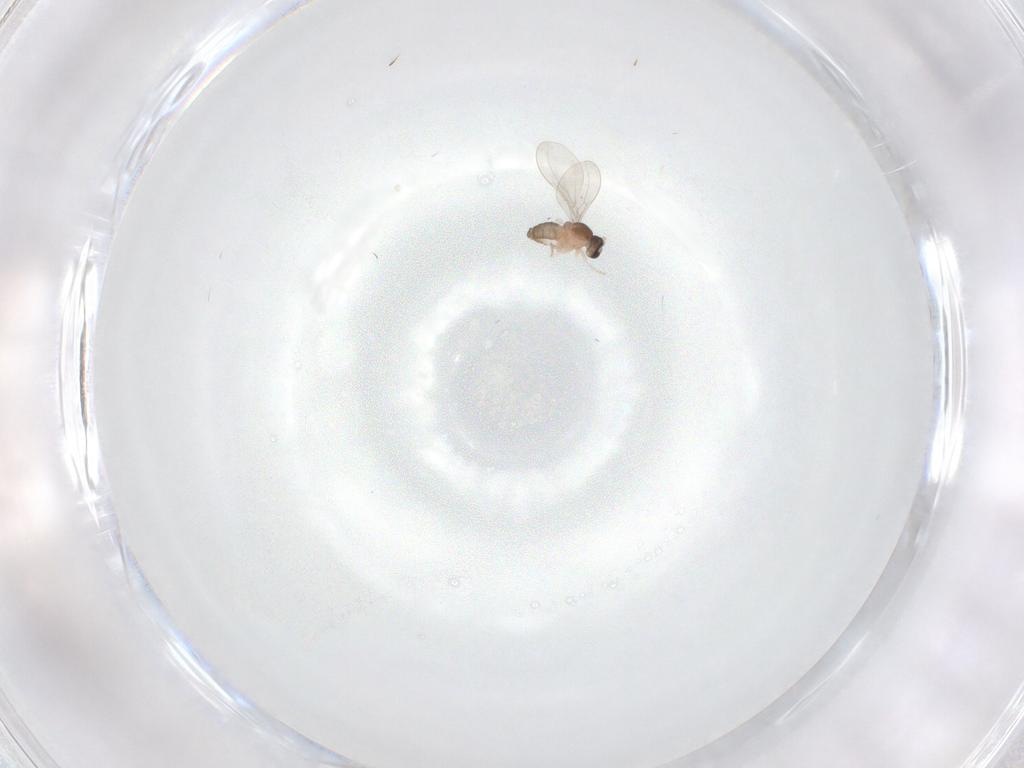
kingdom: Animalia
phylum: Arthropoda
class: Insecta
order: Diptera
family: Cecidomyiidae
